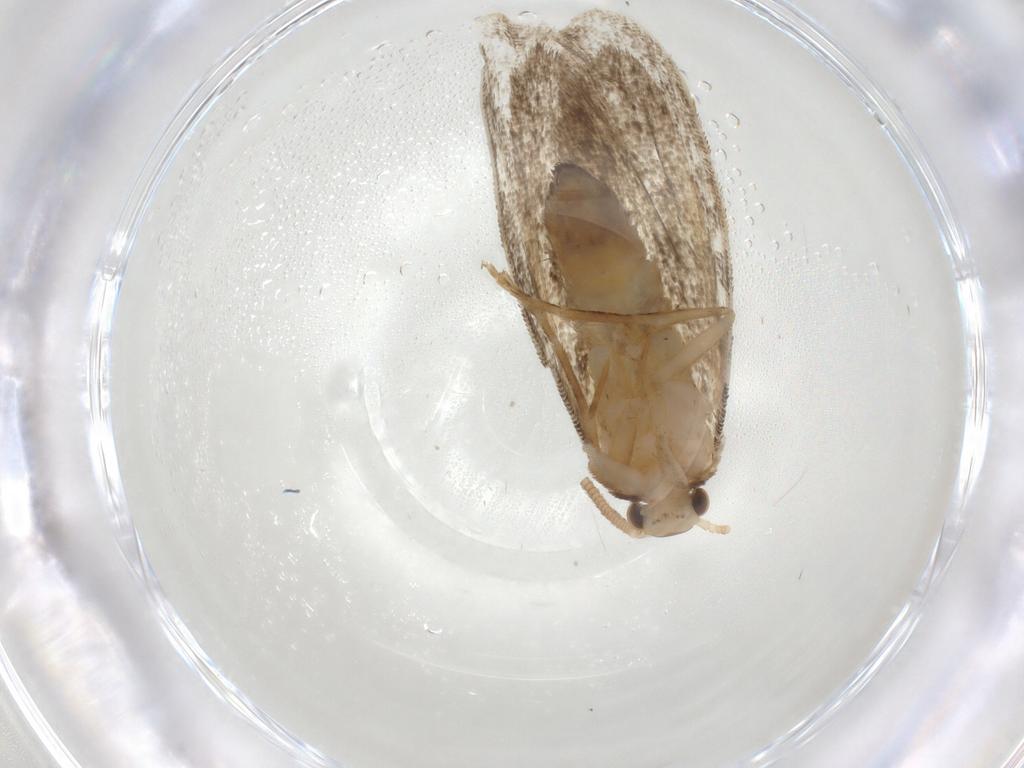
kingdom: Animalia
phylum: Arthropoda
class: Insecta
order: Lepidoptera
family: Dryadaulidae
